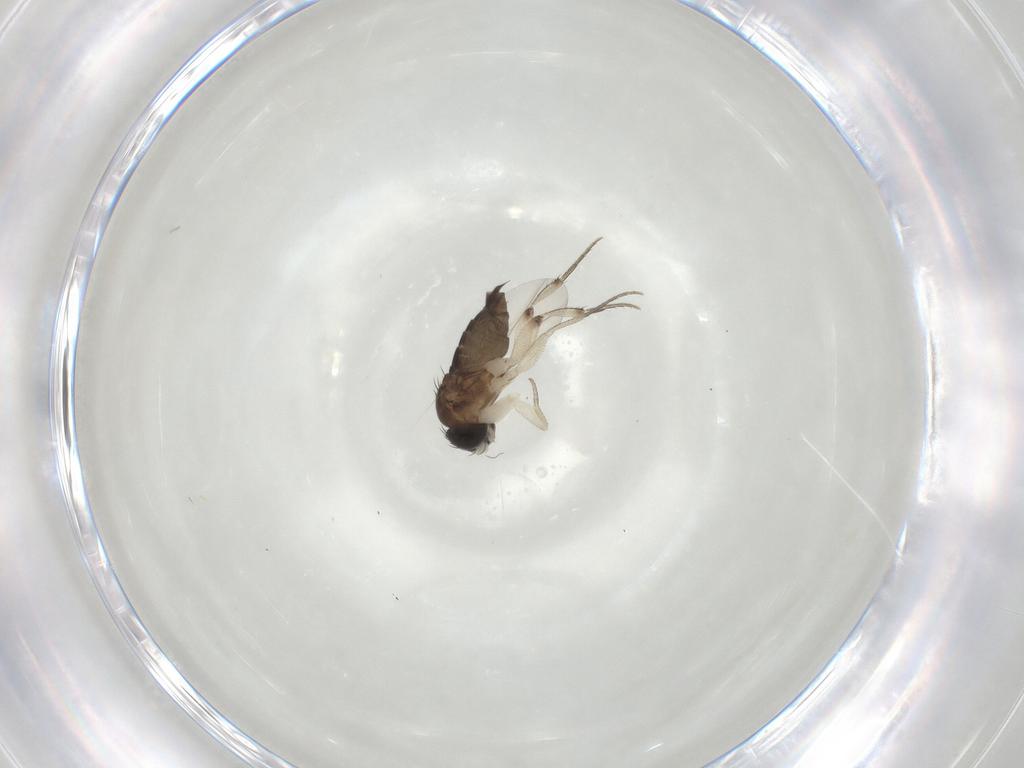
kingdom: Animalia
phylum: Arthropoda
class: Insecta
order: Diptera
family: Phoridae
